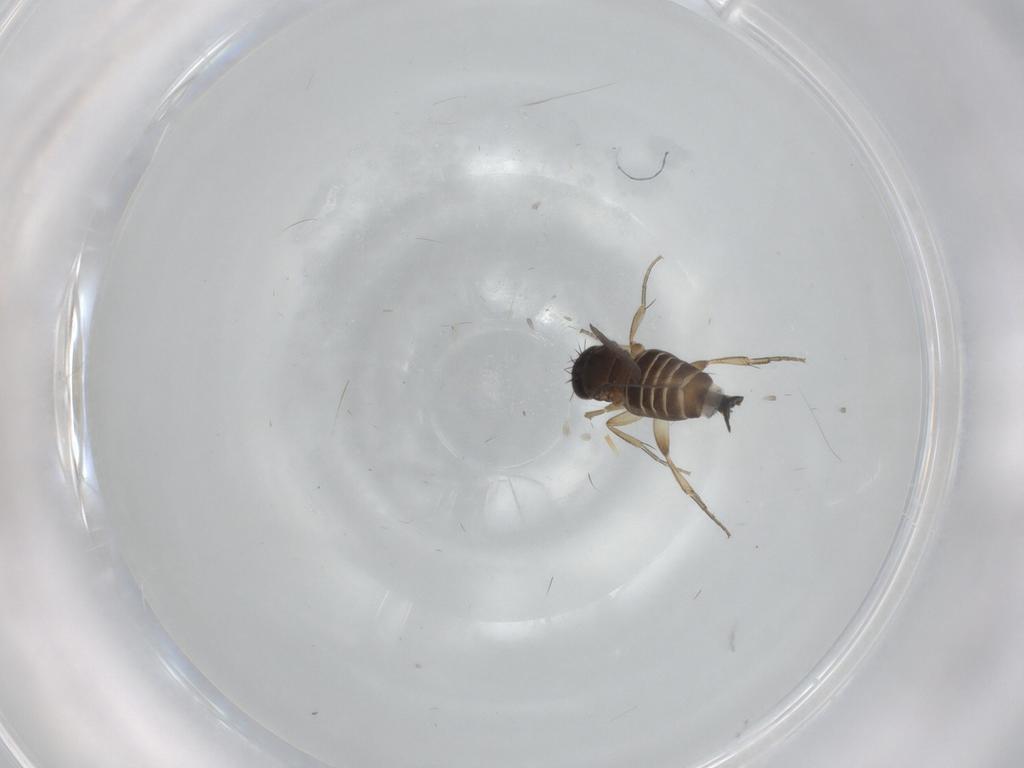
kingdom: Animalia
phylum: Arthropoda
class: Insecta
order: Diptera
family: Phoridae
